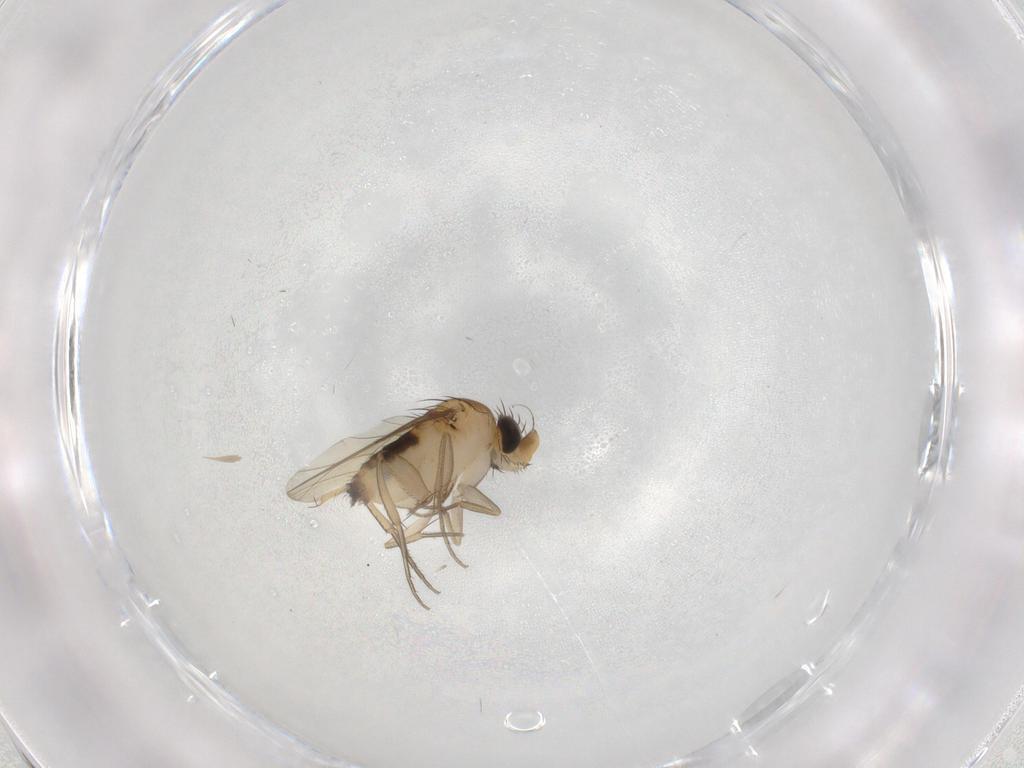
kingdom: Animalia
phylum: Arthropoda
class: Insecta
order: Diptera
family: Phoridae
